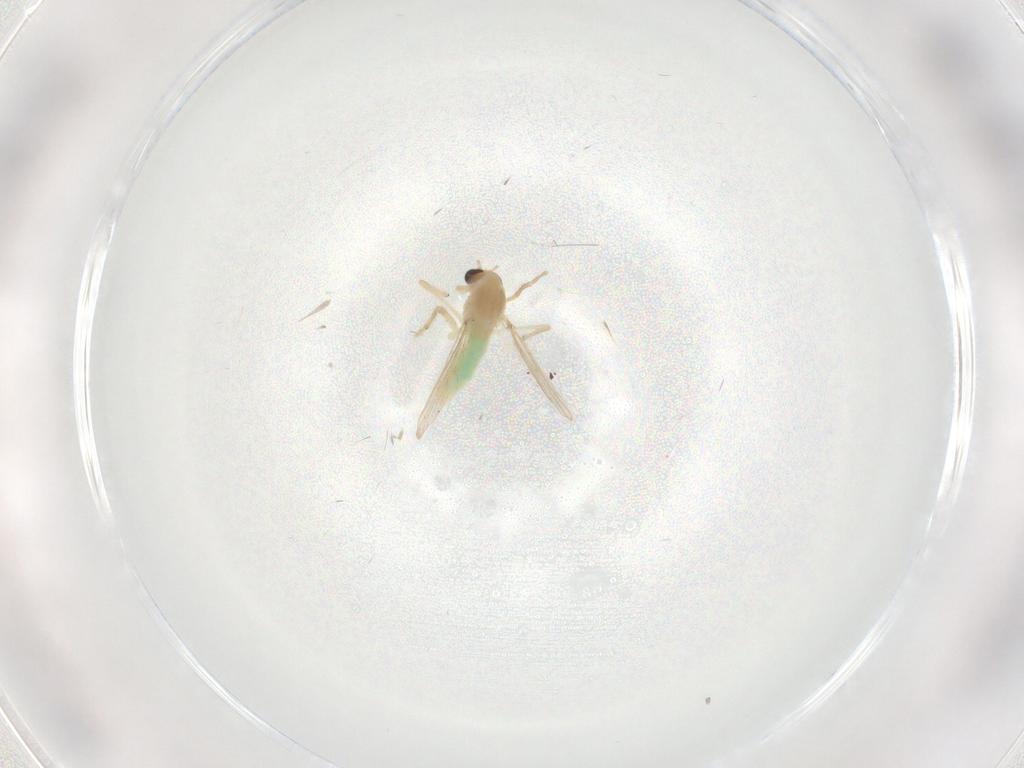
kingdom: Animalia
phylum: Arthropoda
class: Insecta
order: Diptera
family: Chironomidae
